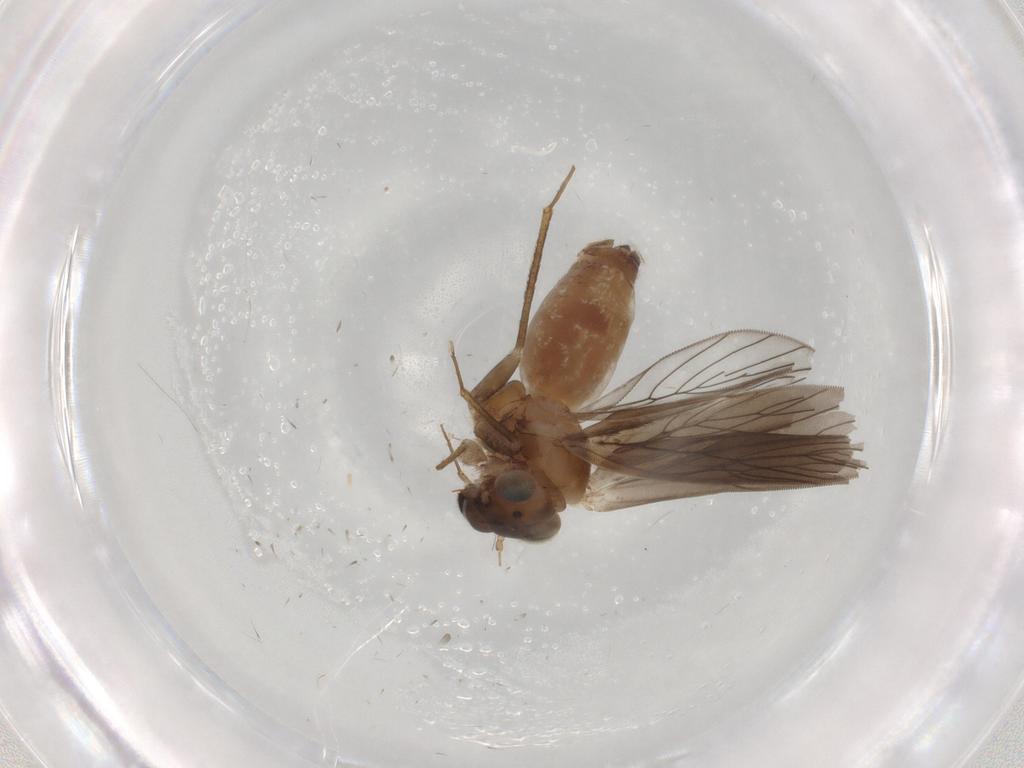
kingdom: Animalia
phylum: Arthropoda
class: Insecta
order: Psocodea
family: Lepidopsocidae
